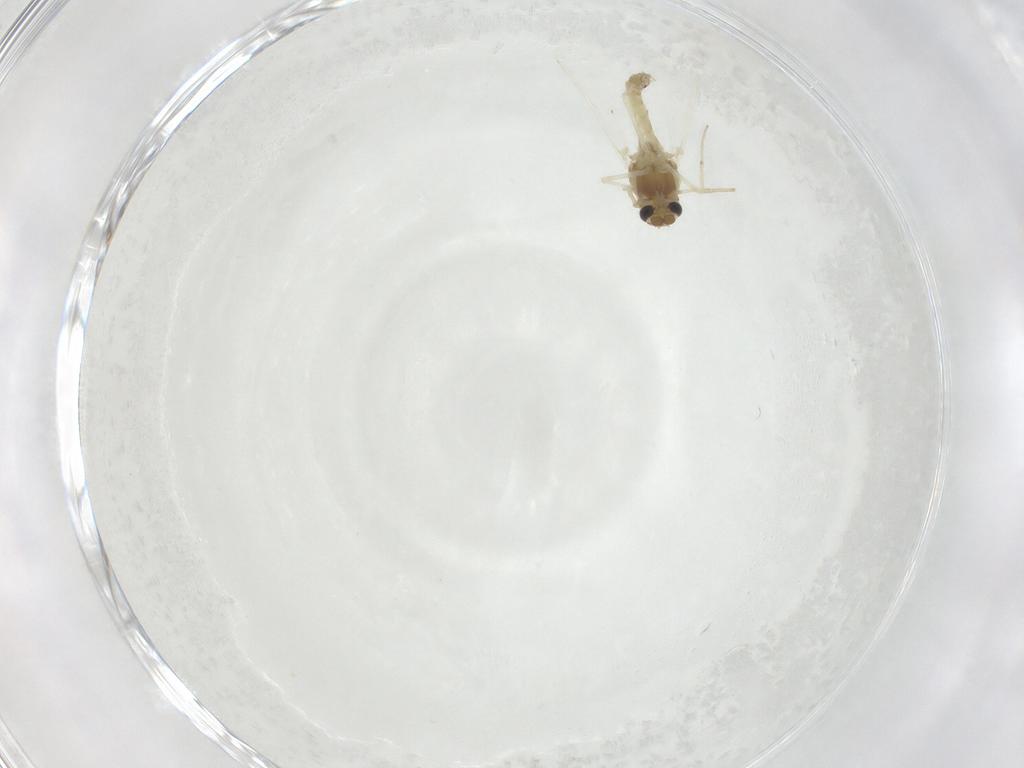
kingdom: Animalia
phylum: Arthropoda
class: Insecta
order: Diptera
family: Chironomidae
